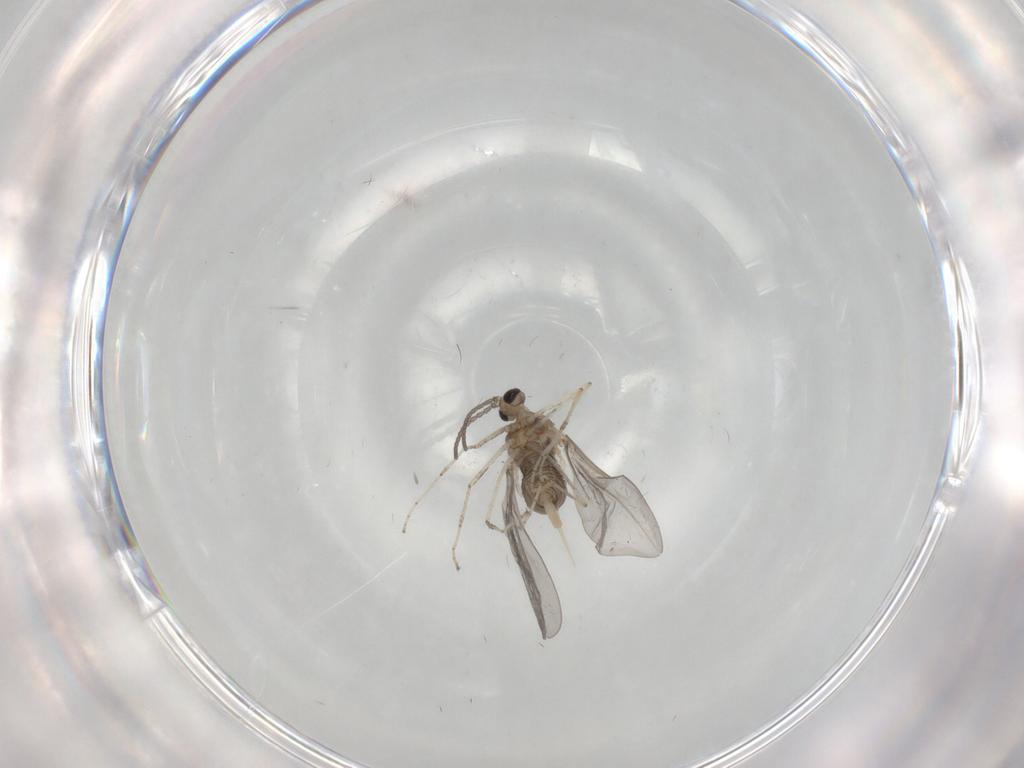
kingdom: Animalia
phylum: Arthropoda
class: Insecta
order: Diptera
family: Cecidomyiidae
